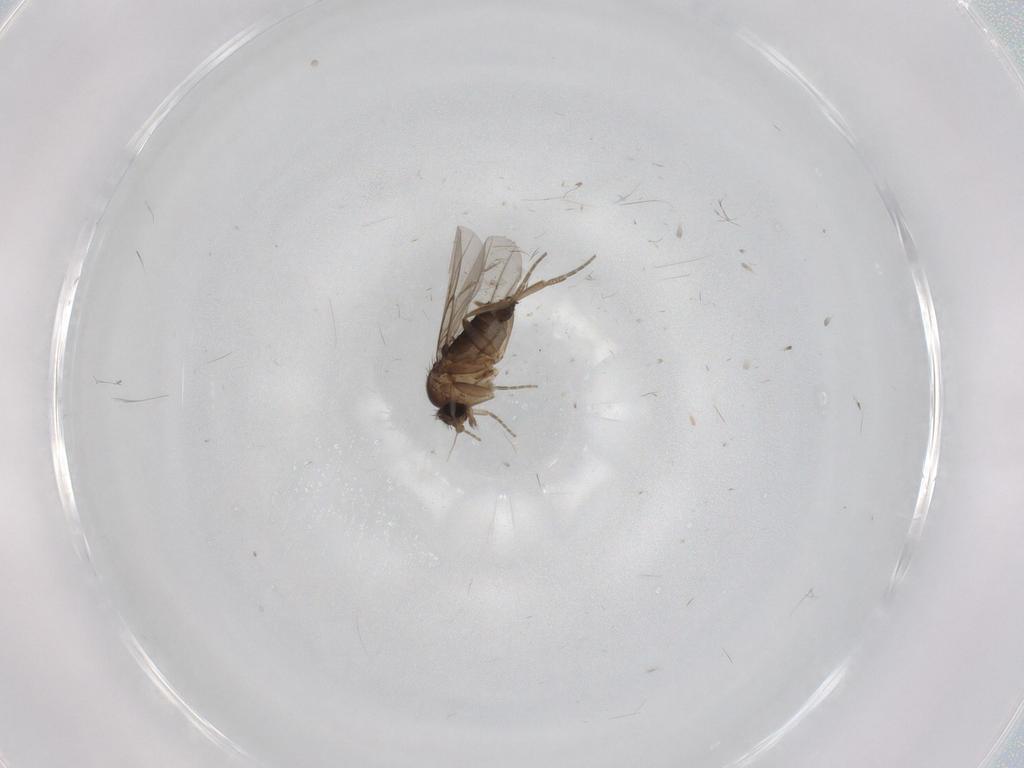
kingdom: Animalia
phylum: Arthropoda
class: Insecta
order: Diptera
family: Phoridae
